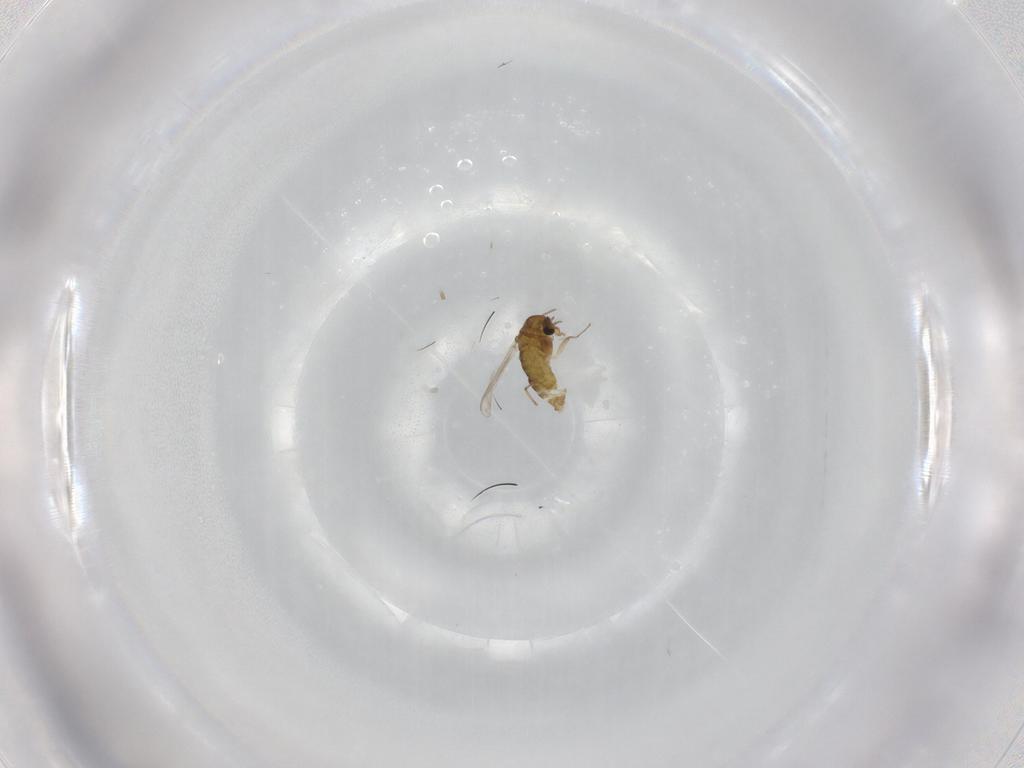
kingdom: Animalia
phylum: Arthropoda
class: Insecta
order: Diptera
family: Chironomidae
